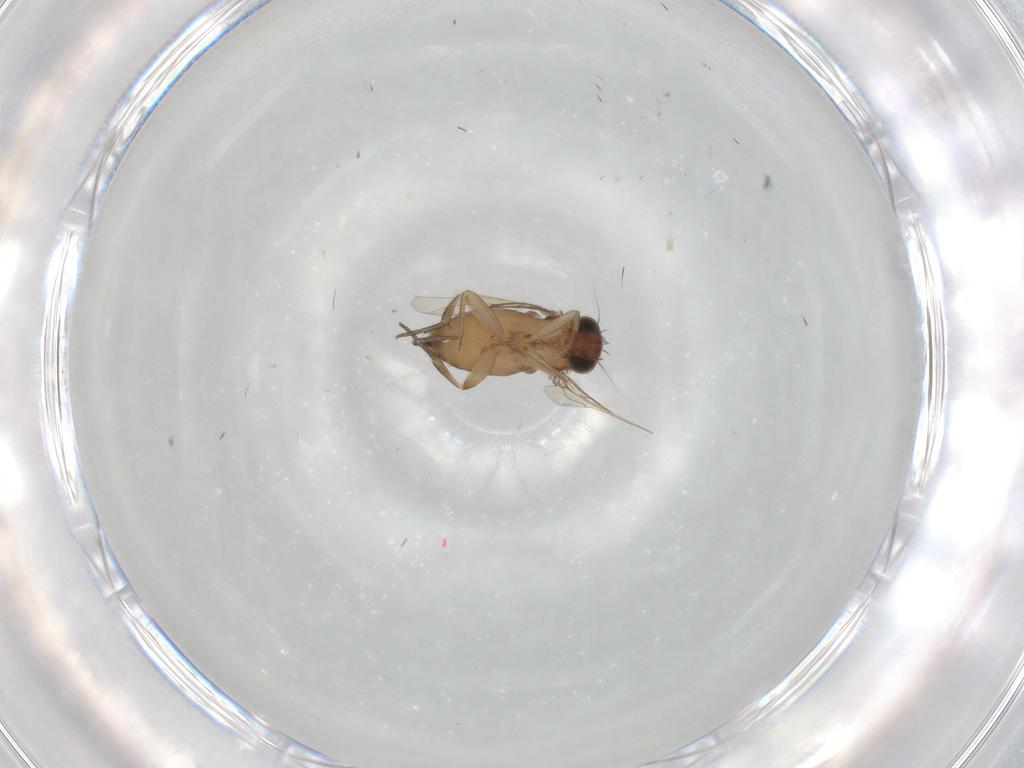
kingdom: Animalia
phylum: Arthropoda
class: Insecta
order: Diptera
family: Phoridae
